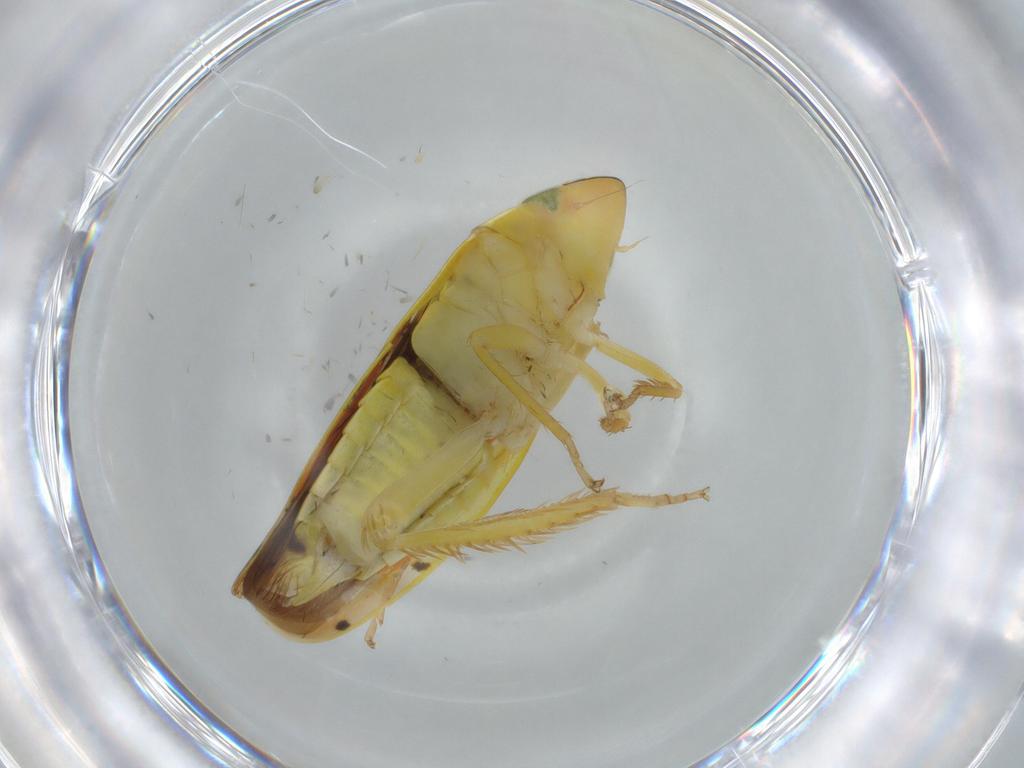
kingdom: Animalia
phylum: Arthropoda
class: Insecta
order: Hemiptera
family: Cicadellidae
